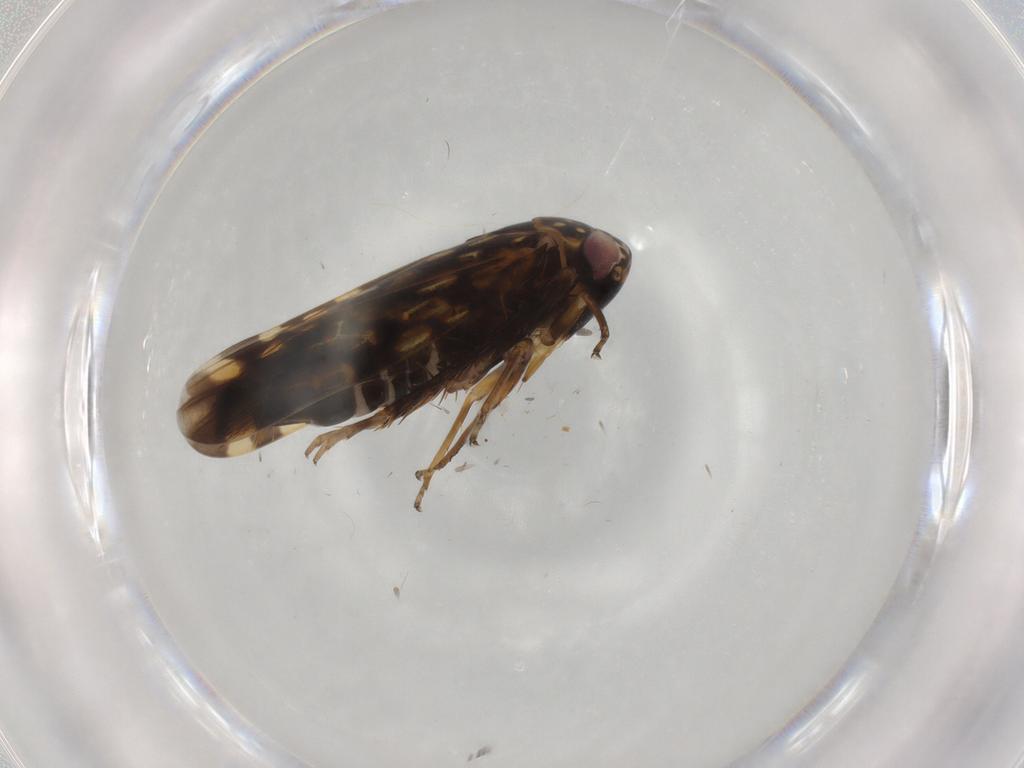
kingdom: Animalia
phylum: Arthropoda
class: Insecta
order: Hemiptera
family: Cicadellidae
